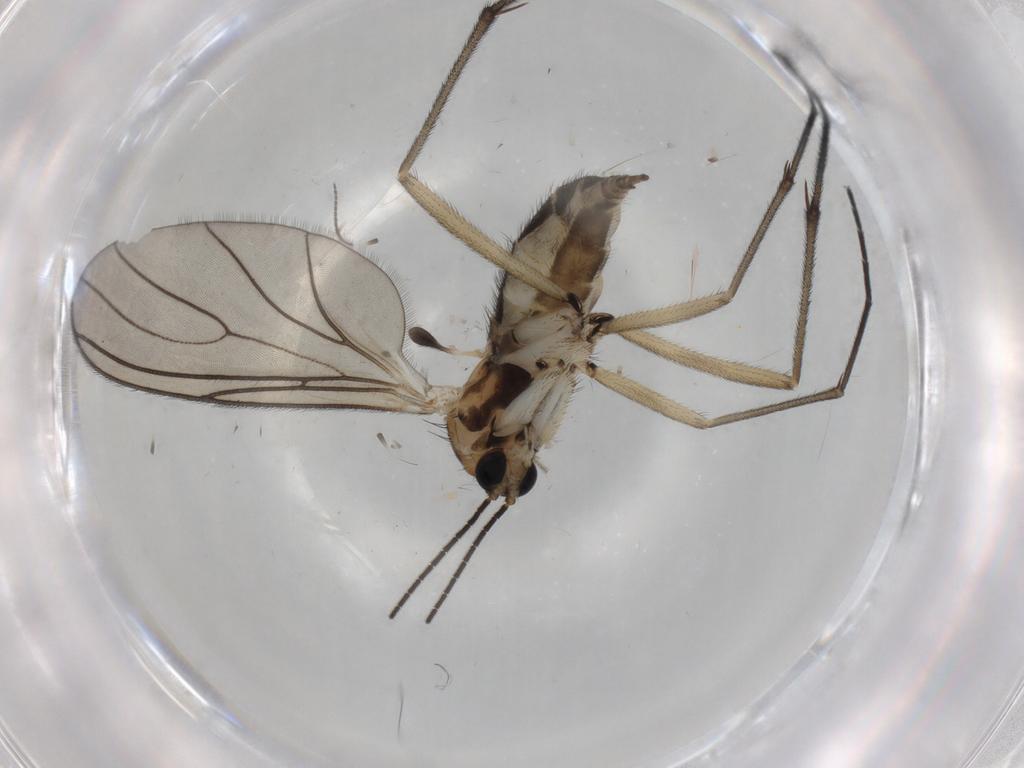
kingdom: Animalia
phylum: Arthropoda
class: Insecta
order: Diptera
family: Sciaridae
